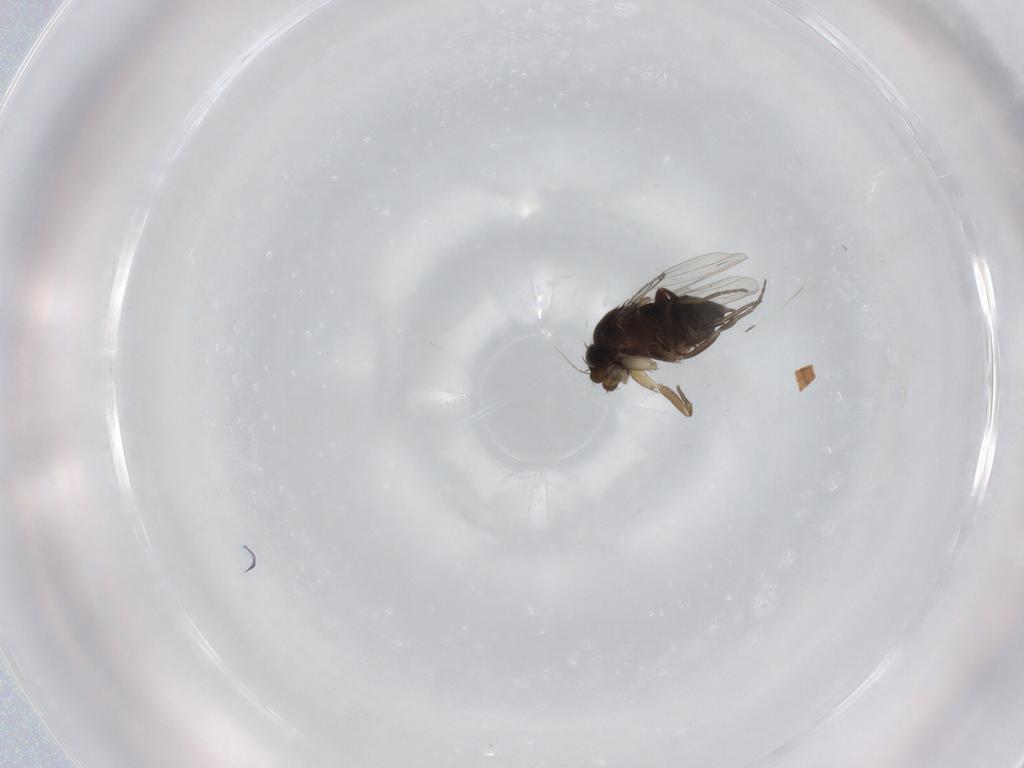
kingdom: Animalia
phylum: Arthropoda
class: Insecta
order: Diptera
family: Phoridae
